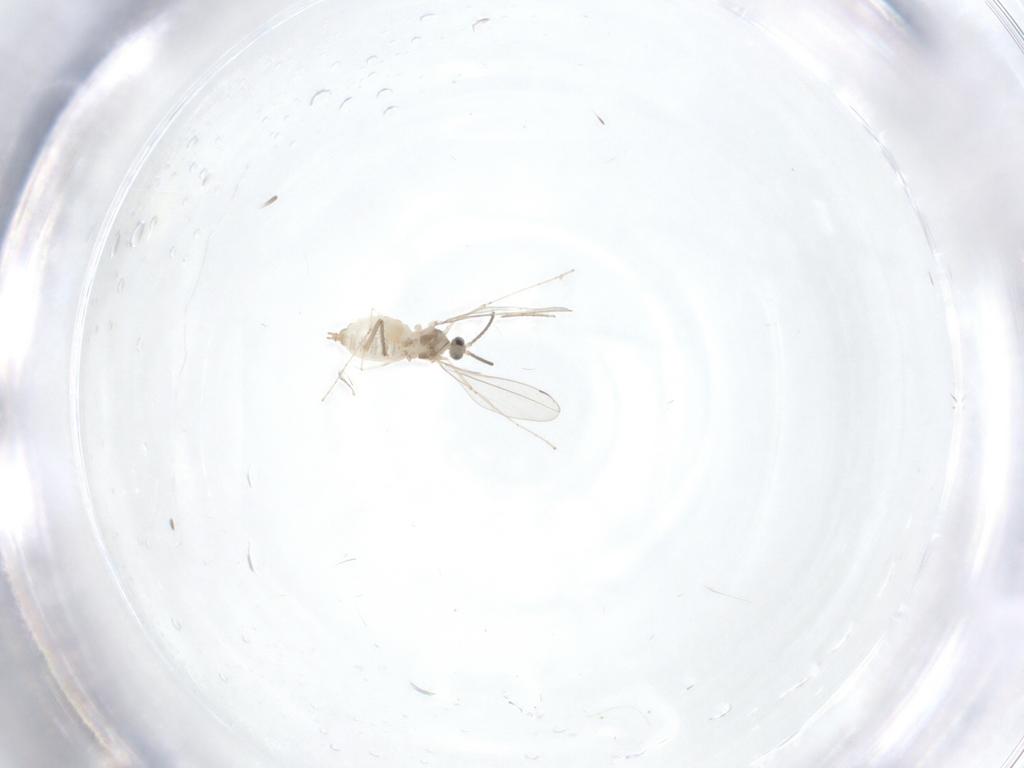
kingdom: Animalia
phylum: Arthropoda
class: Insecta
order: Diptera
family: Cecidomyiidae
